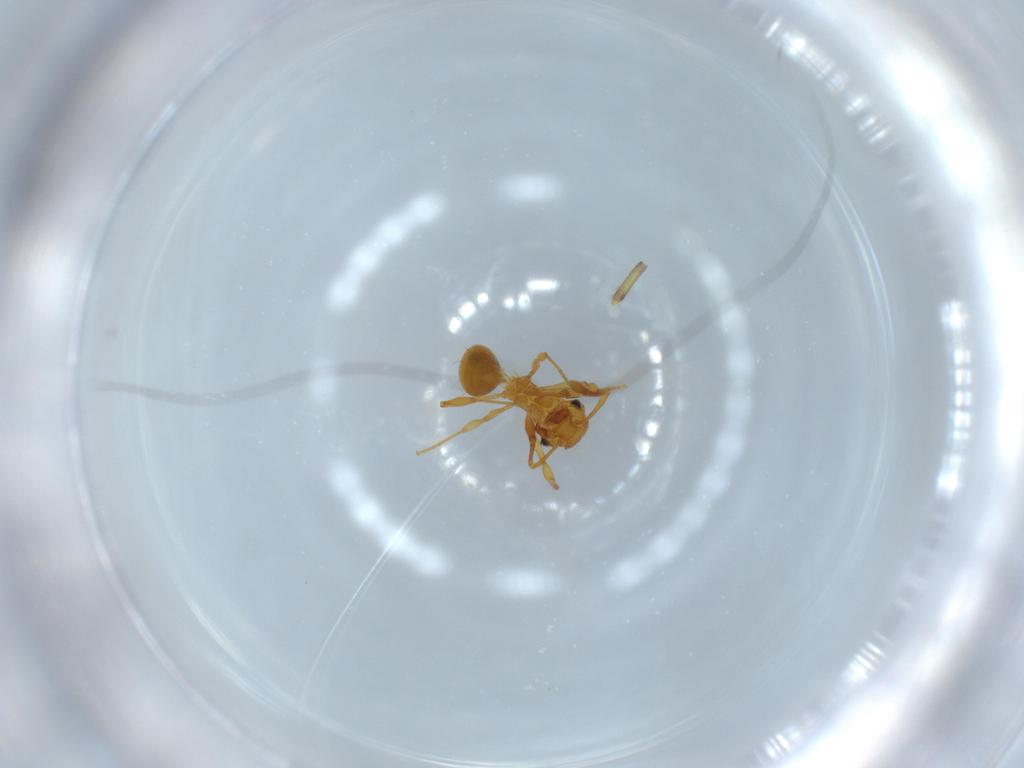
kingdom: Animalia
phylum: Arthropoda
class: Insecta
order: Hymenoptera
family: Formicidae
